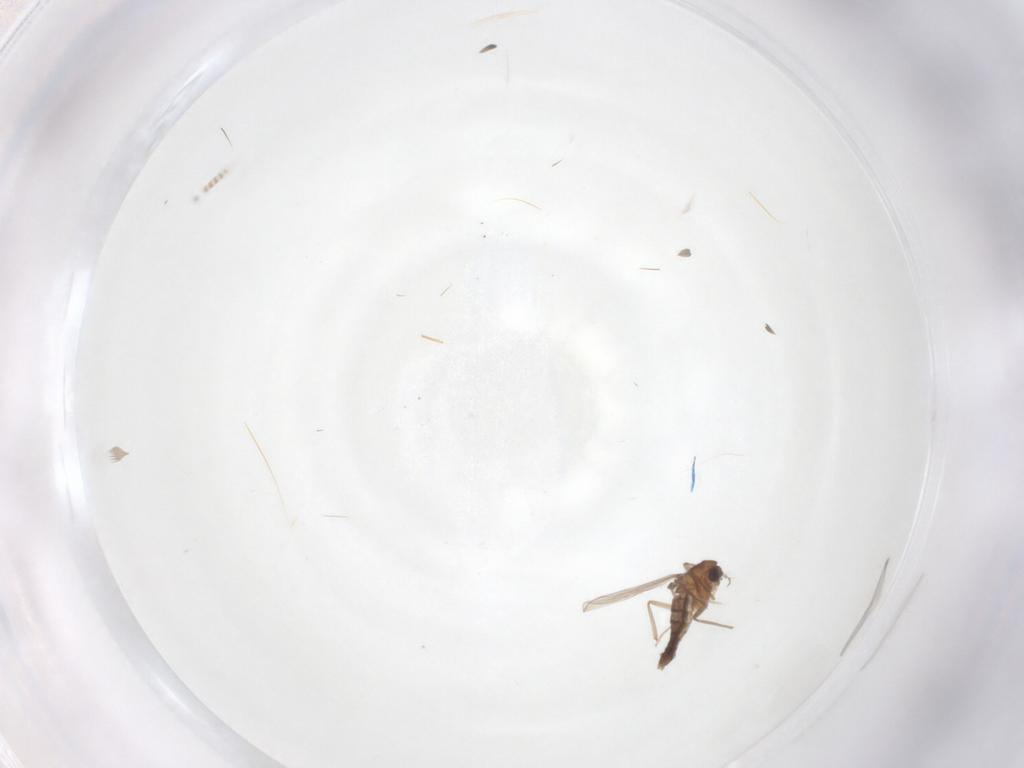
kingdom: Animalia
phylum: Arthropoda
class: Insecta
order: Diptera
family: Chironomidae
